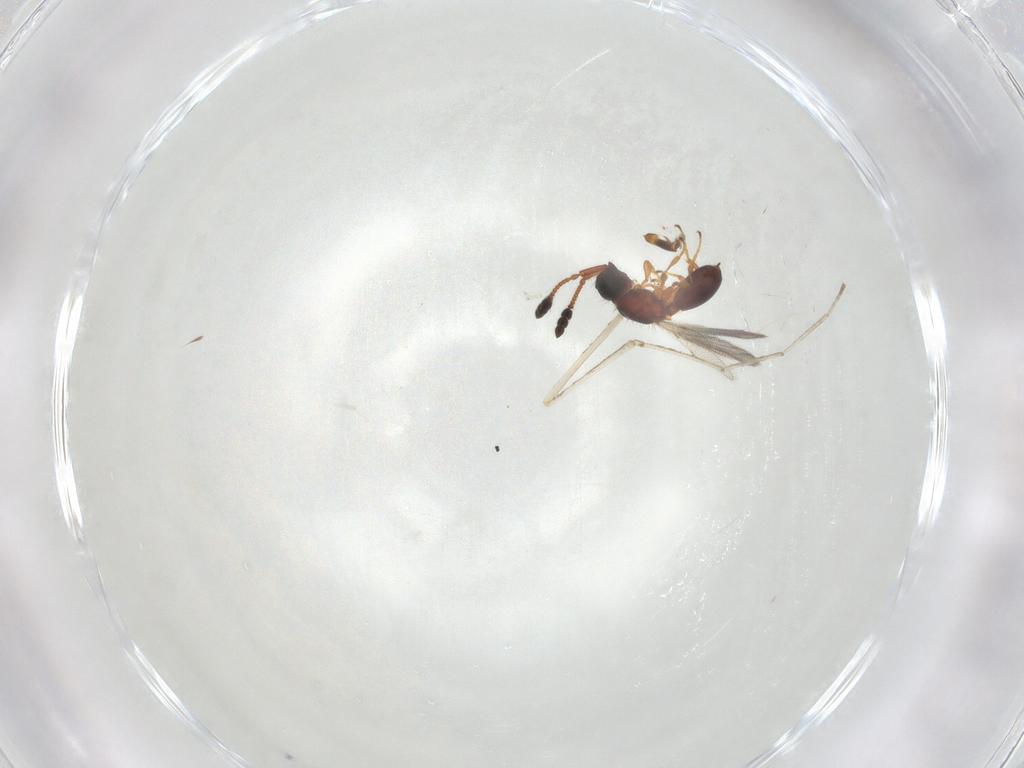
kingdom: Animalia
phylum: Arthropoda
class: Insecta
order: Hymenoptera
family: Diapriidae
